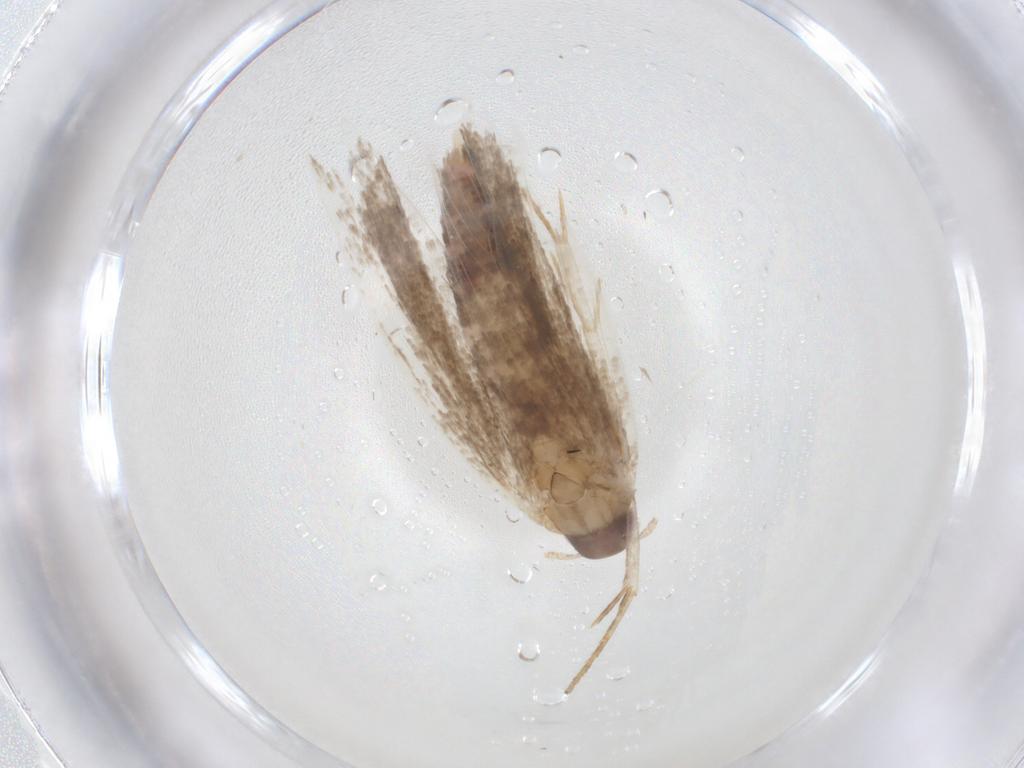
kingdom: Animalia
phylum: Arthropoda
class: Insecta
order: Lepidoptera
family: Gelechiidae
